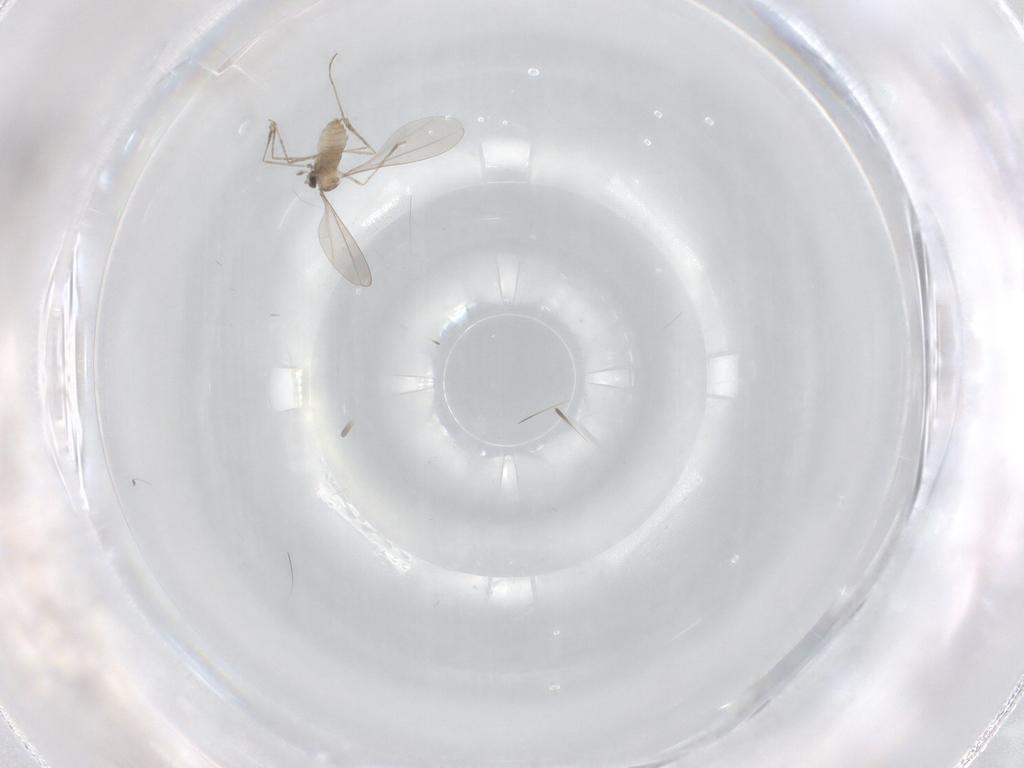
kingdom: Animalia
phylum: Arthropoda
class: Insecta
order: Diptera
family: Cecidomyiidae
